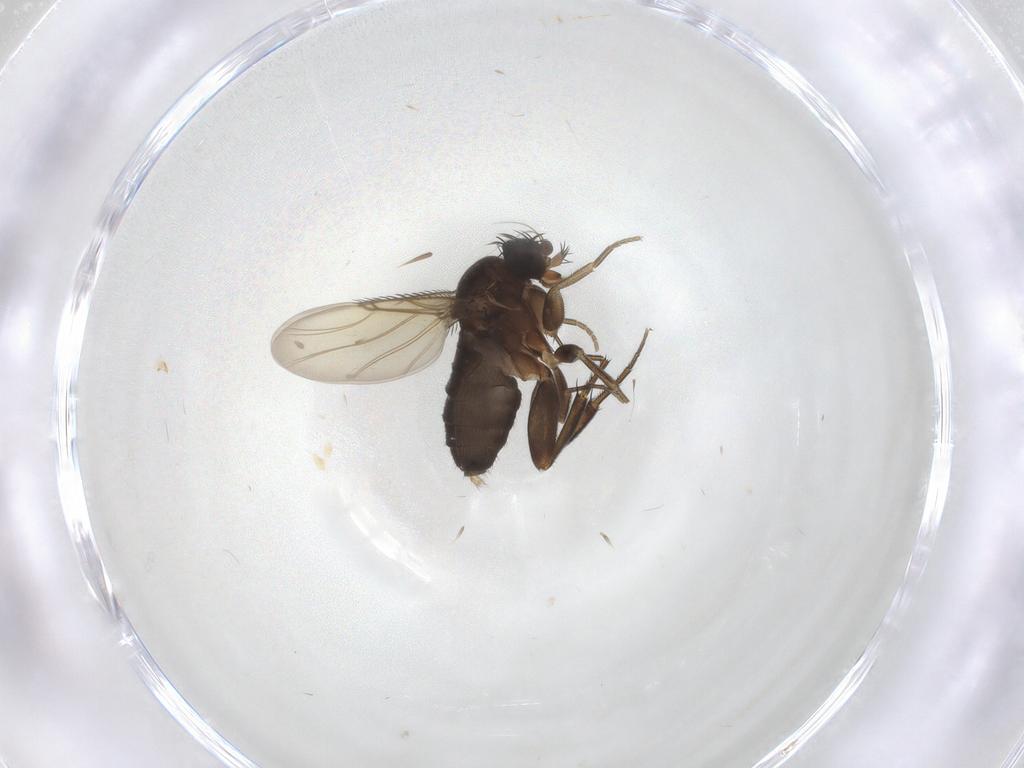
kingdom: Animalia
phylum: Arthropoda
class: Insecta
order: Diptera
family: Phoridae
